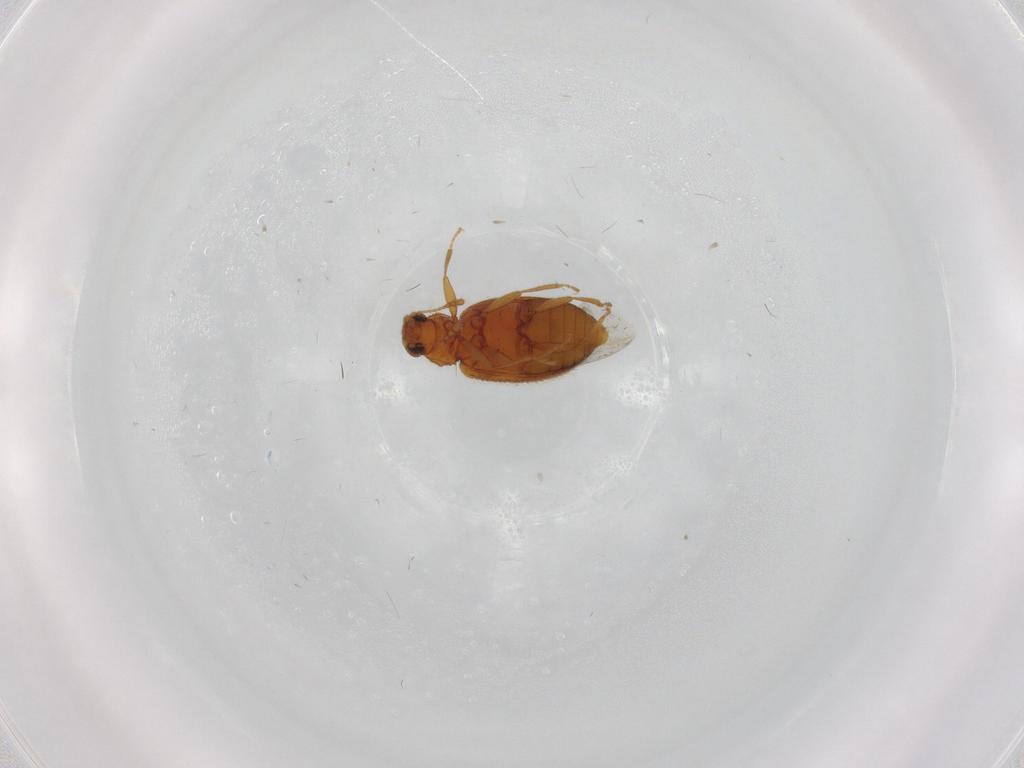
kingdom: Animalia
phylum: Arthropoda
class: Insecta
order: Coleoptera
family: Latridiidae
